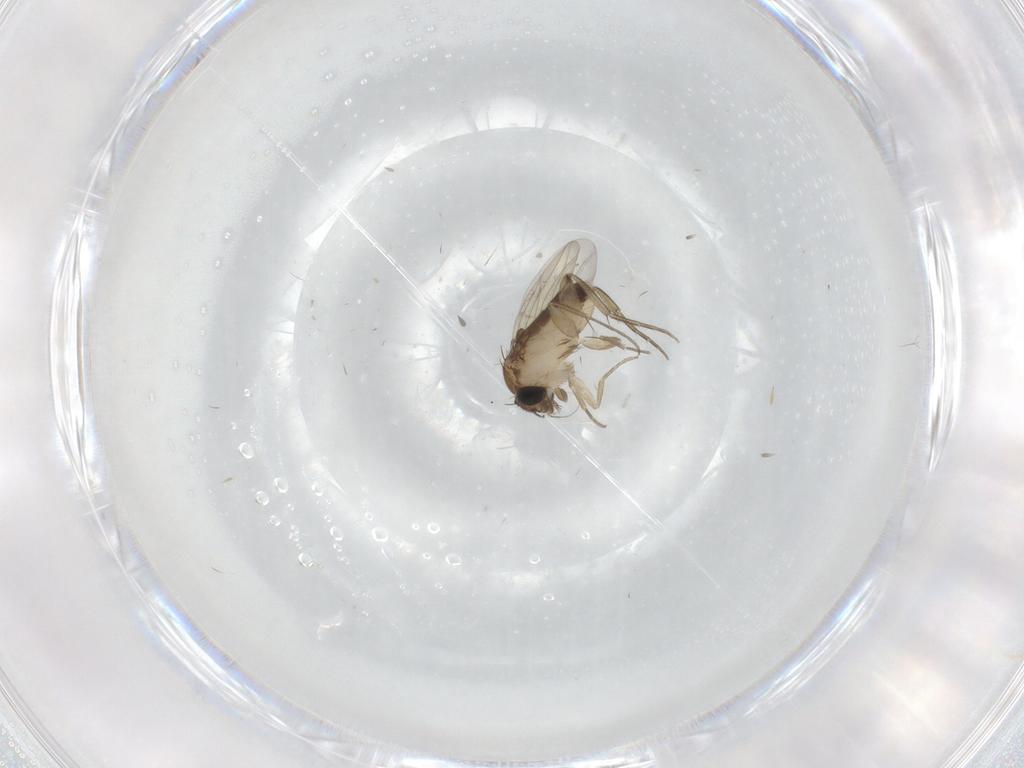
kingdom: Animalia
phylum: Arthropoda
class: Insecta
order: Diptera
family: Phoridae
